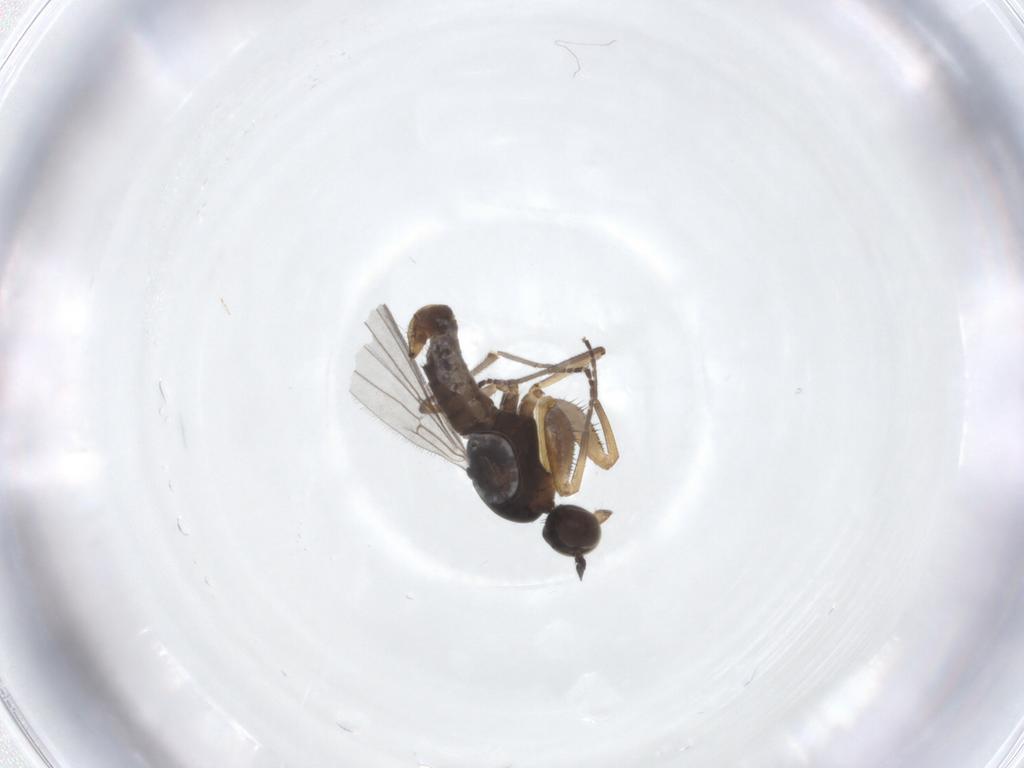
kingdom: Animalia
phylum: Arthropoda
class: Insecta
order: Diptera
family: Empididae
